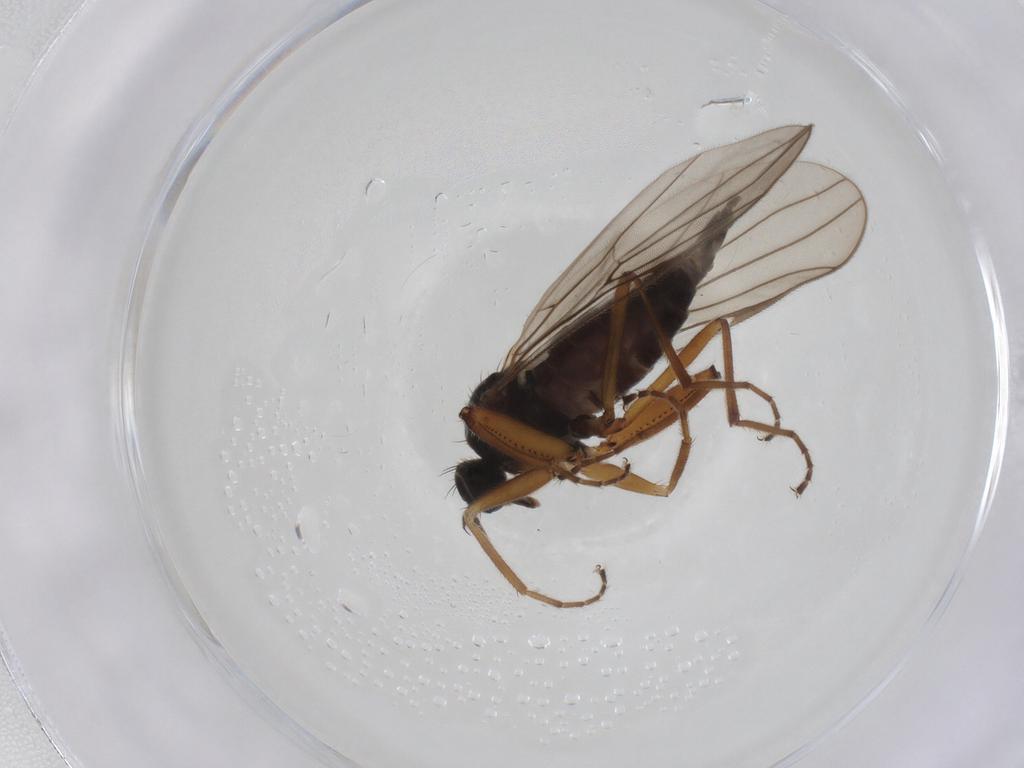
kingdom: Animalia
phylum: Arthropoda
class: Insecta
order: Diptera
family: Hybotidae
